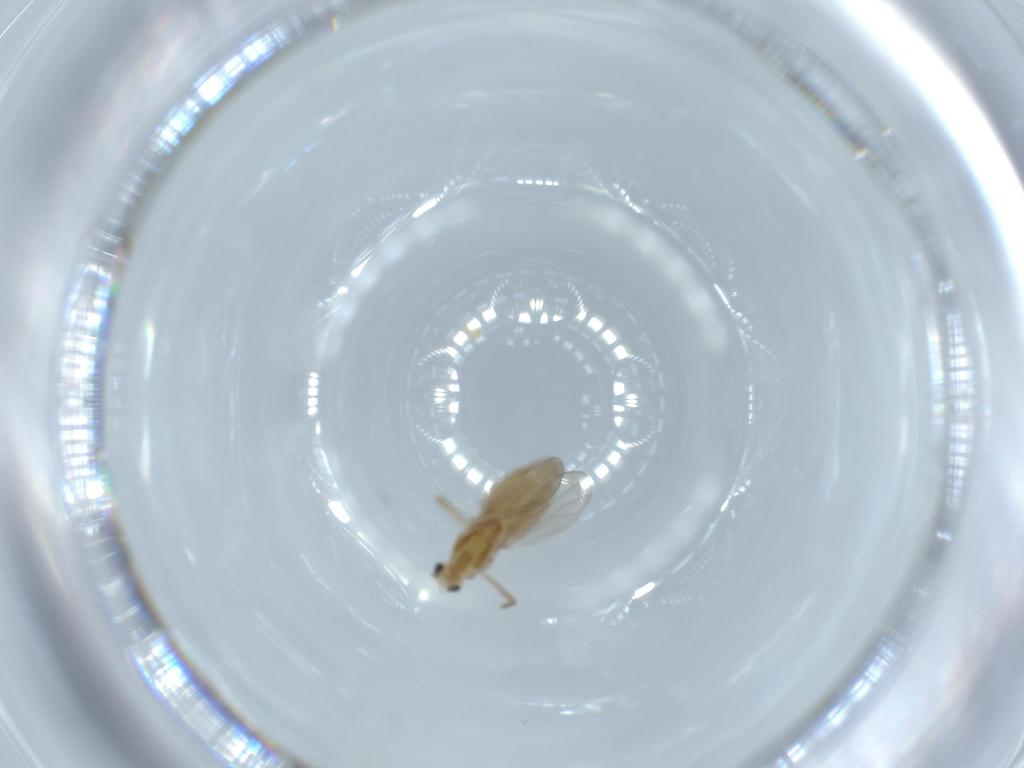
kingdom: Animalia
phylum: Arthropoda
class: Insecta
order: Diptera
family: Chironomidae
